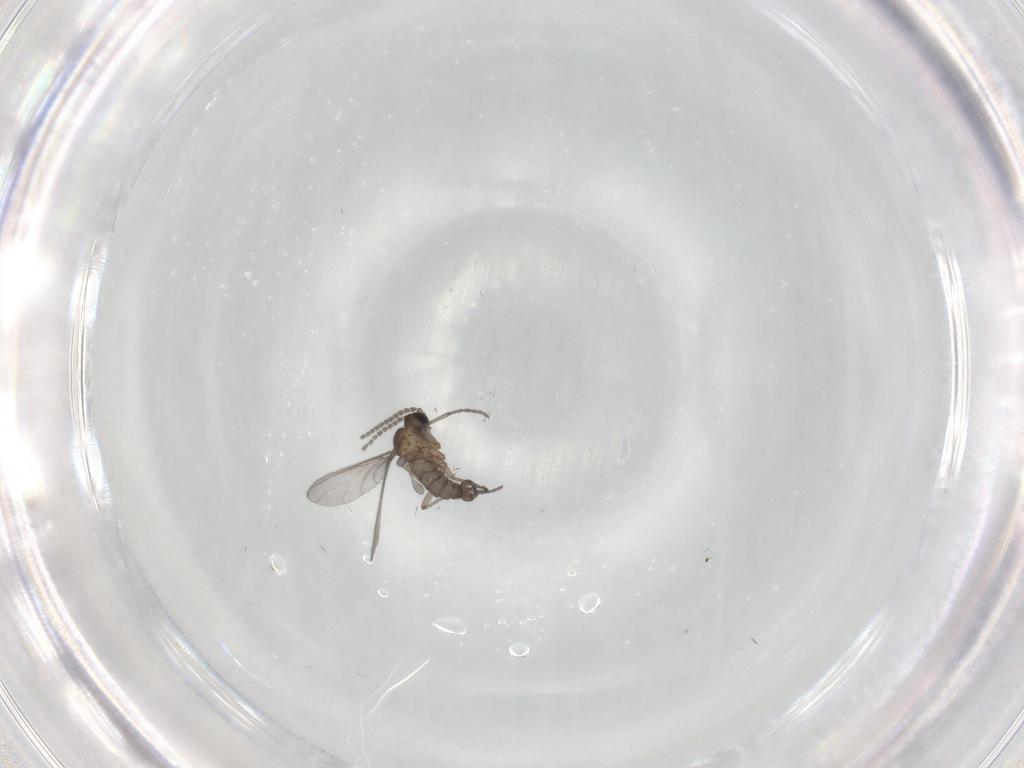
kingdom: Animalia
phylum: Arthropoda
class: Insecta
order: Diptera
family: Sciaridae
